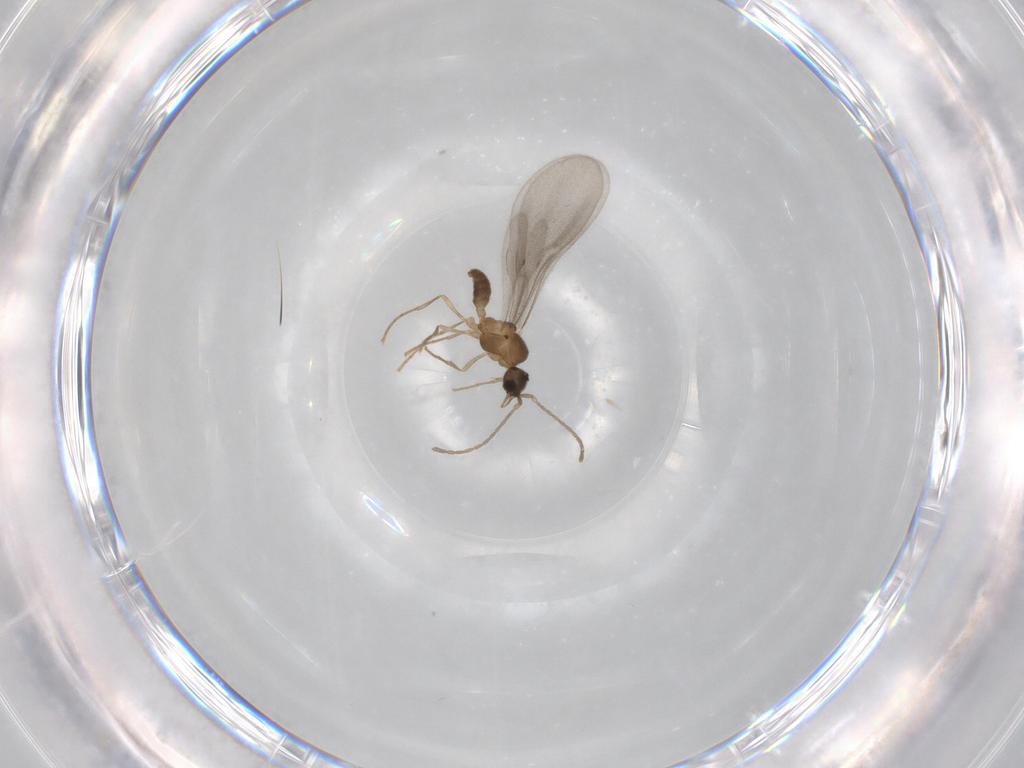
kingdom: Animalia
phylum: Arthropoda
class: Insecta
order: Hymenoptera
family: Formicidae
